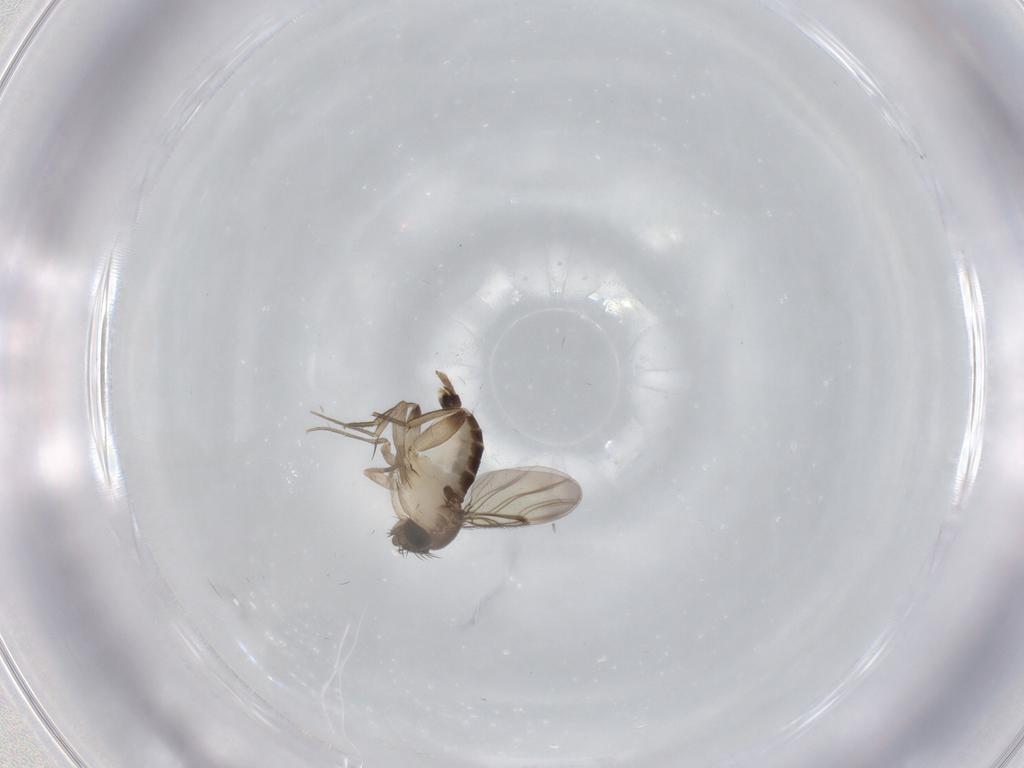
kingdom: Animalia
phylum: Arthropoda
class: Insecta
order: Diptera
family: Phoridae
